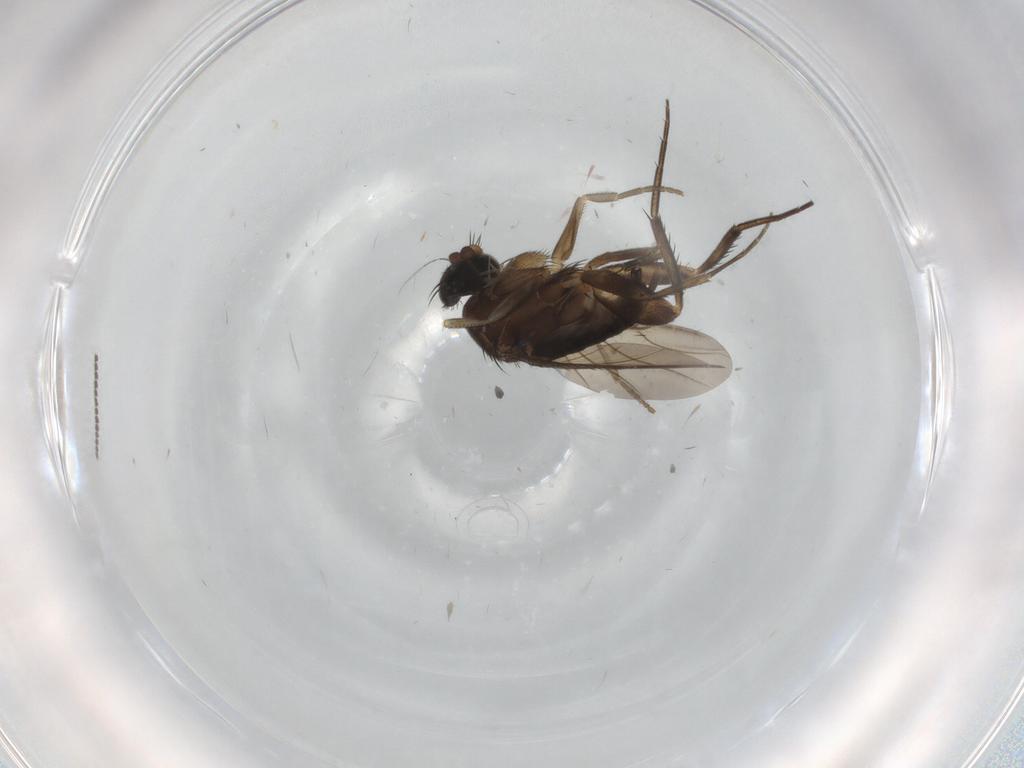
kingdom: Animalia
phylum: Arthropoda
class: Insecta
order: Diptera
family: Phoridae
